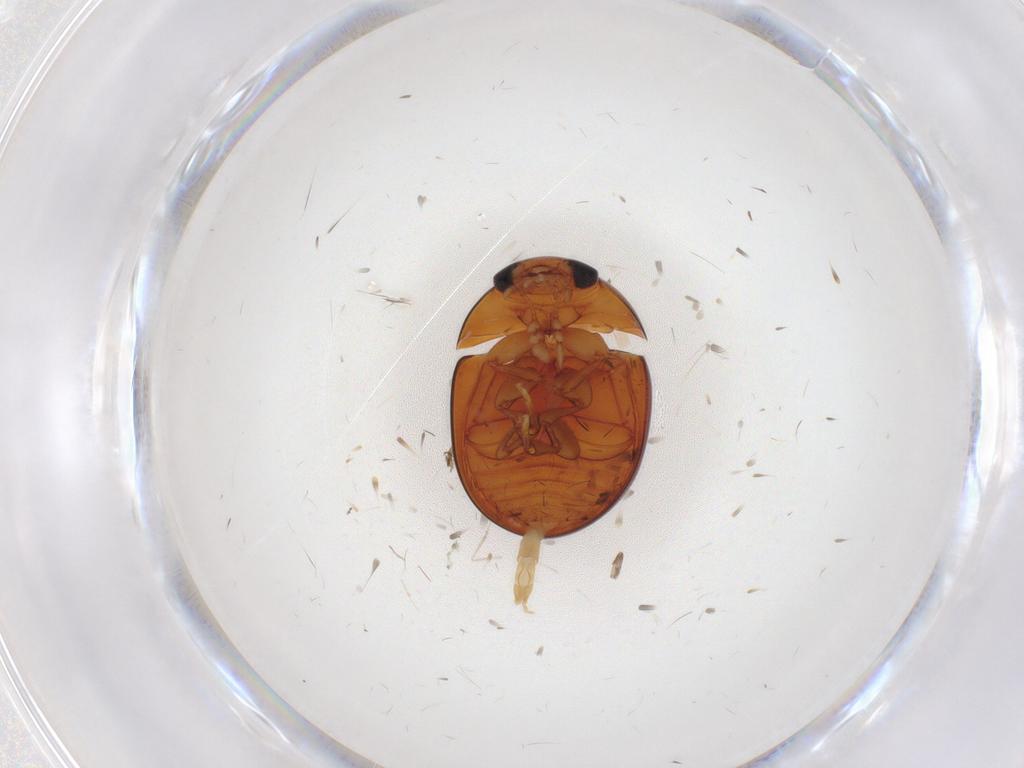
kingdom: Animalia
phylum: Arthropoda
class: Insecta
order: Coleoptera
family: Phalacridae
